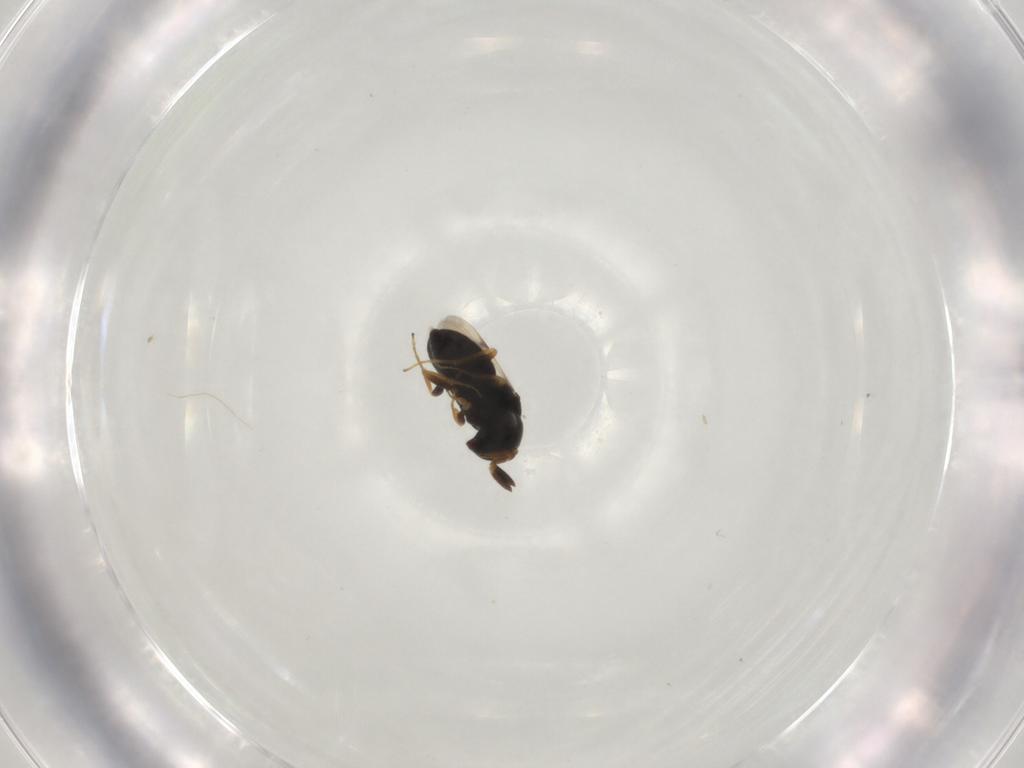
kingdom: Animalia
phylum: Arthropoda
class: Insecta
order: Hymenoptera
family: Scelionidae
